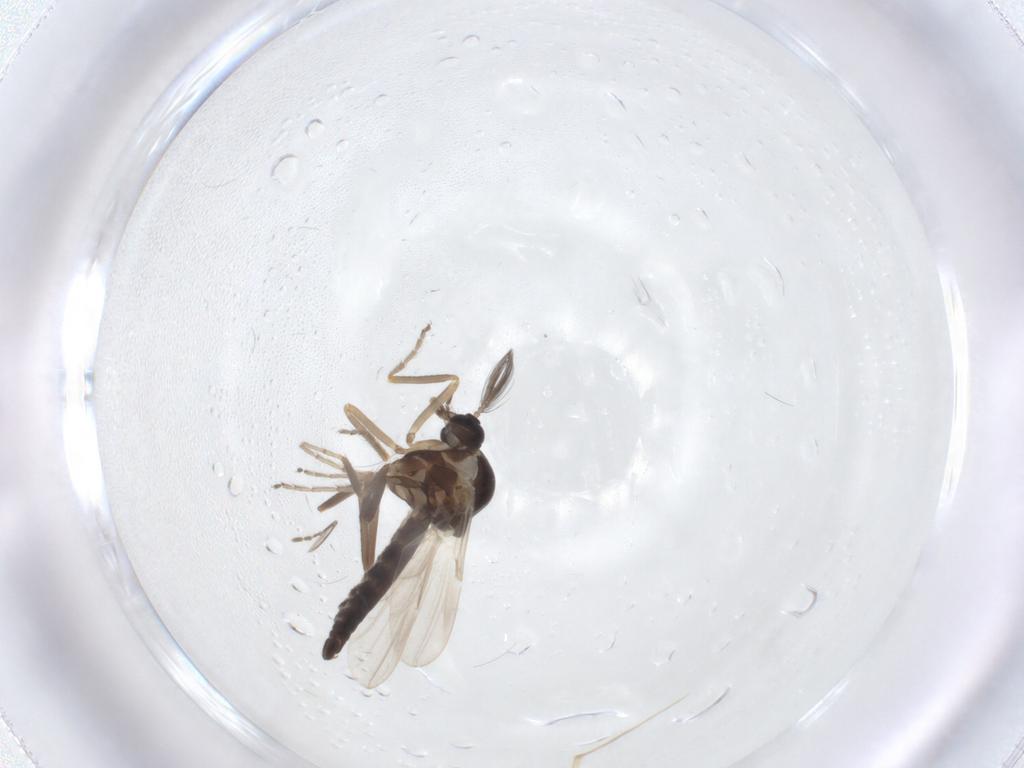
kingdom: Animalia
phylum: Arthropoda
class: Insecta
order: Diptera
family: Ceratopogonidae
